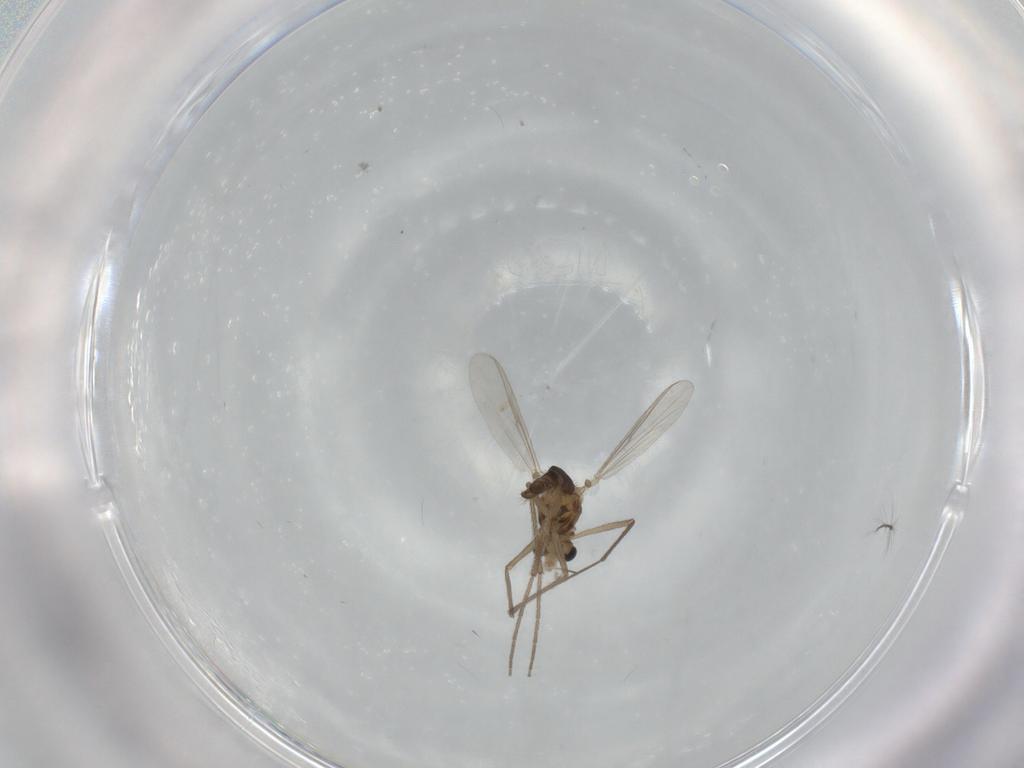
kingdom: Animalia
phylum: Arthropoda
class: Insecta
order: Diptera
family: Chironomidae
